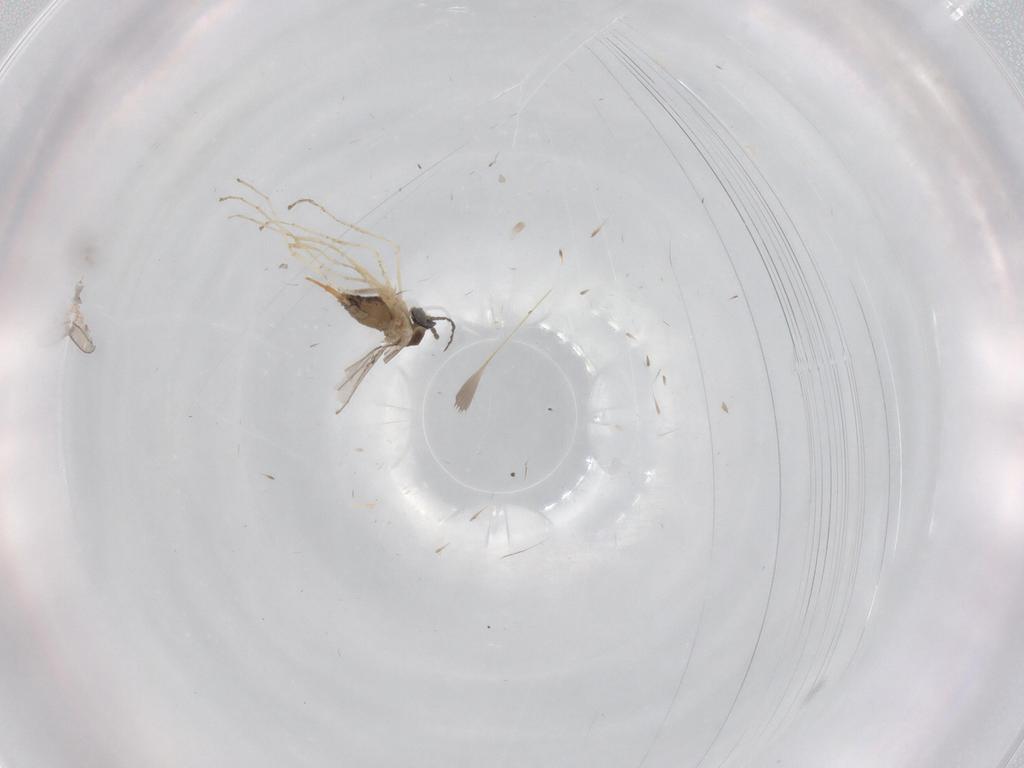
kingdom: Animalia
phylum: Arthropoda
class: Insecta
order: Diptera
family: Cecidomyiidae
